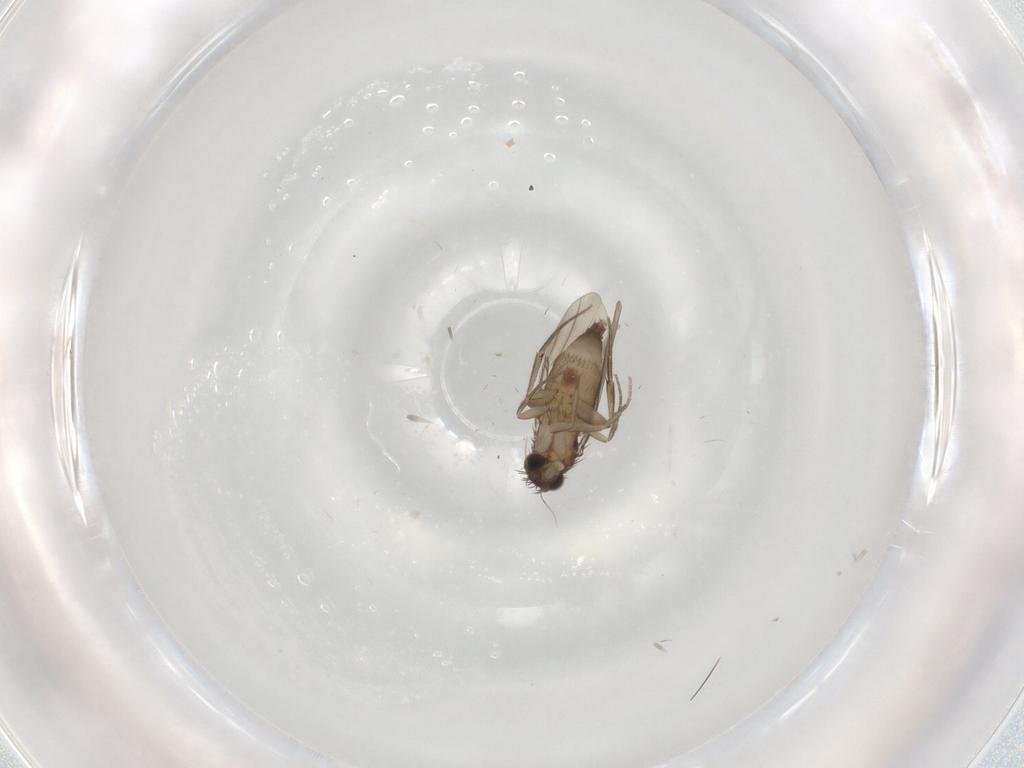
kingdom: Animalia
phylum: Arthropoda
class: Insecta
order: Diptera
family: Phoridae
